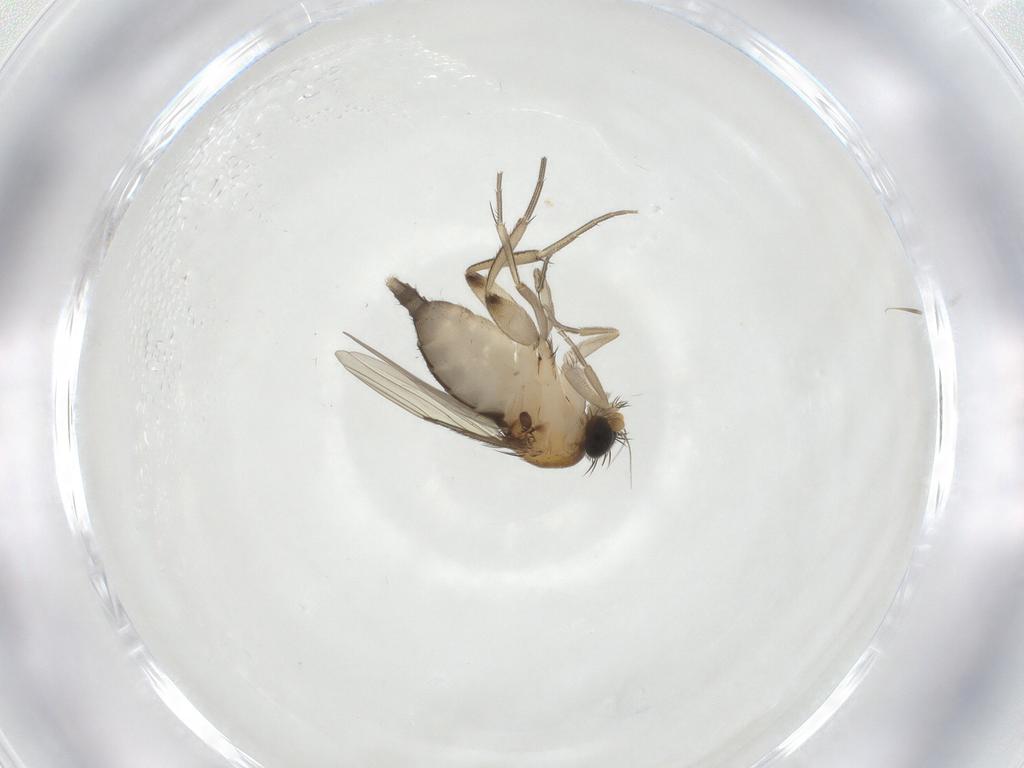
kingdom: Animalia
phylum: Arthropoda
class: Insecta
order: Diptera
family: Phoridae
